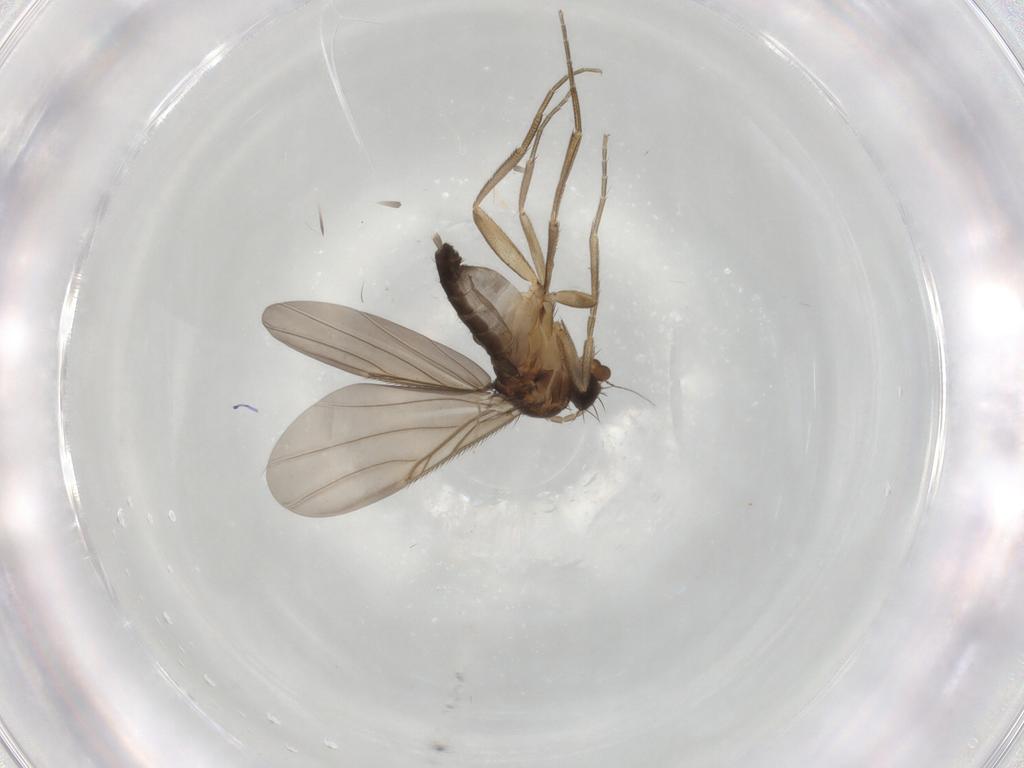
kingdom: Animalia
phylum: Arthropoda
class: Insecta
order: Diptera
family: Phoridae
